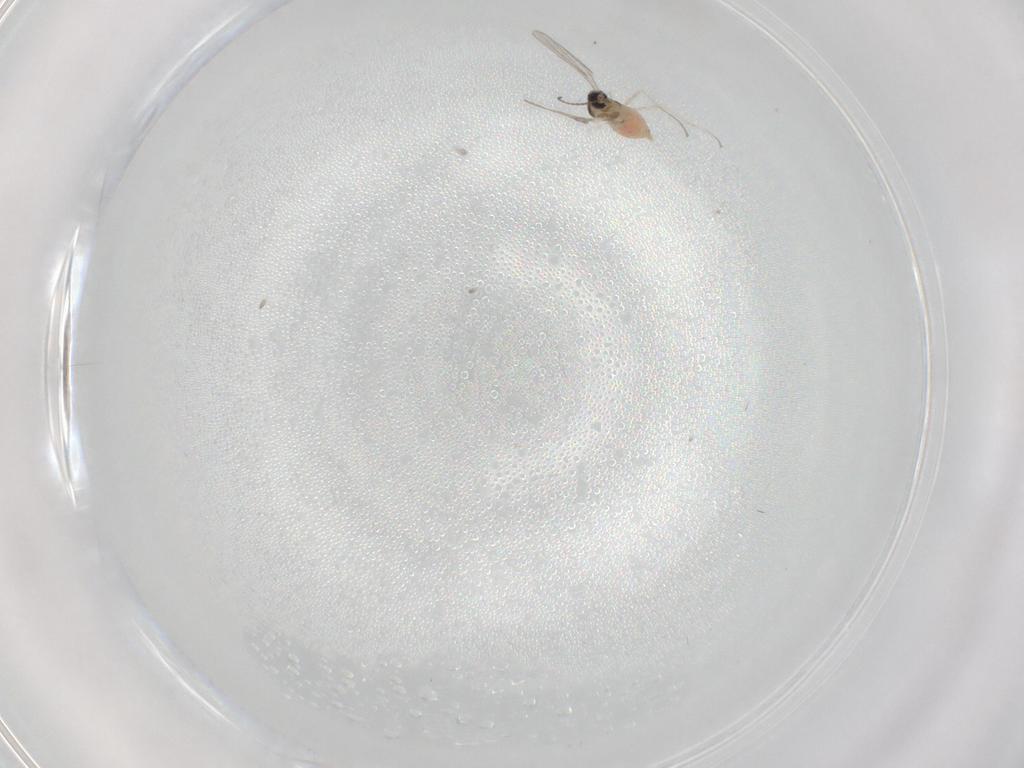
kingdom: Animalia
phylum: Arthropoda
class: Insecta
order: Diptera
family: Cecidomyiidae
